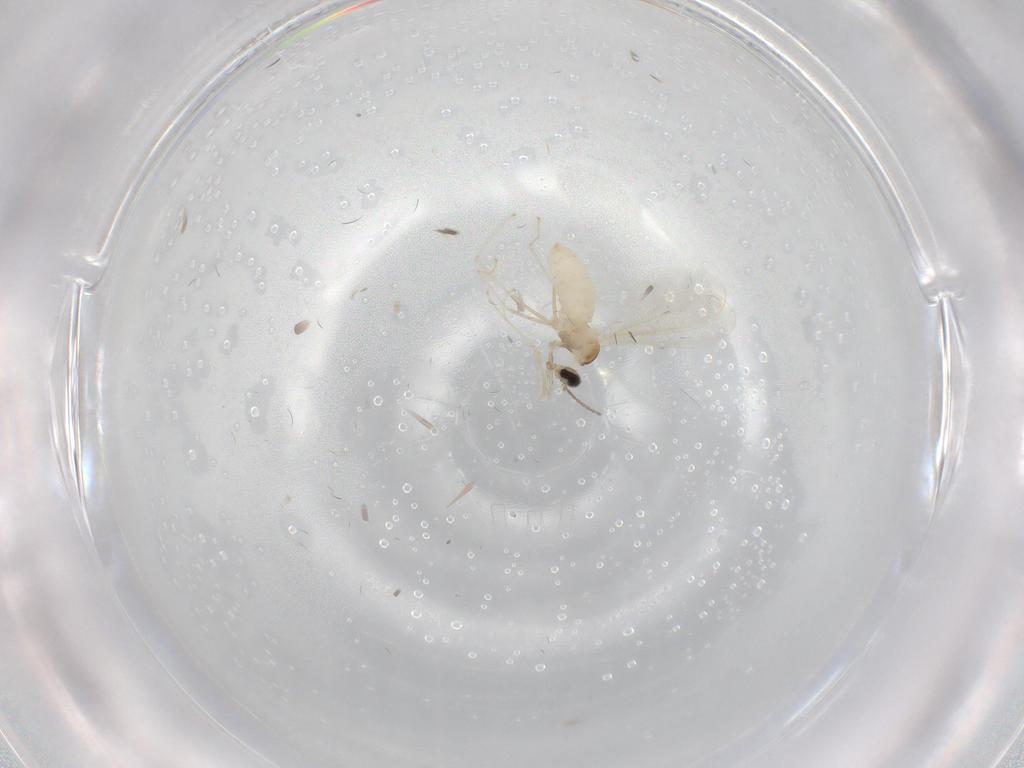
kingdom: Animalia
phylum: Arthropoda
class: Insecta
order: Diptera
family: Cecidomyiidae
